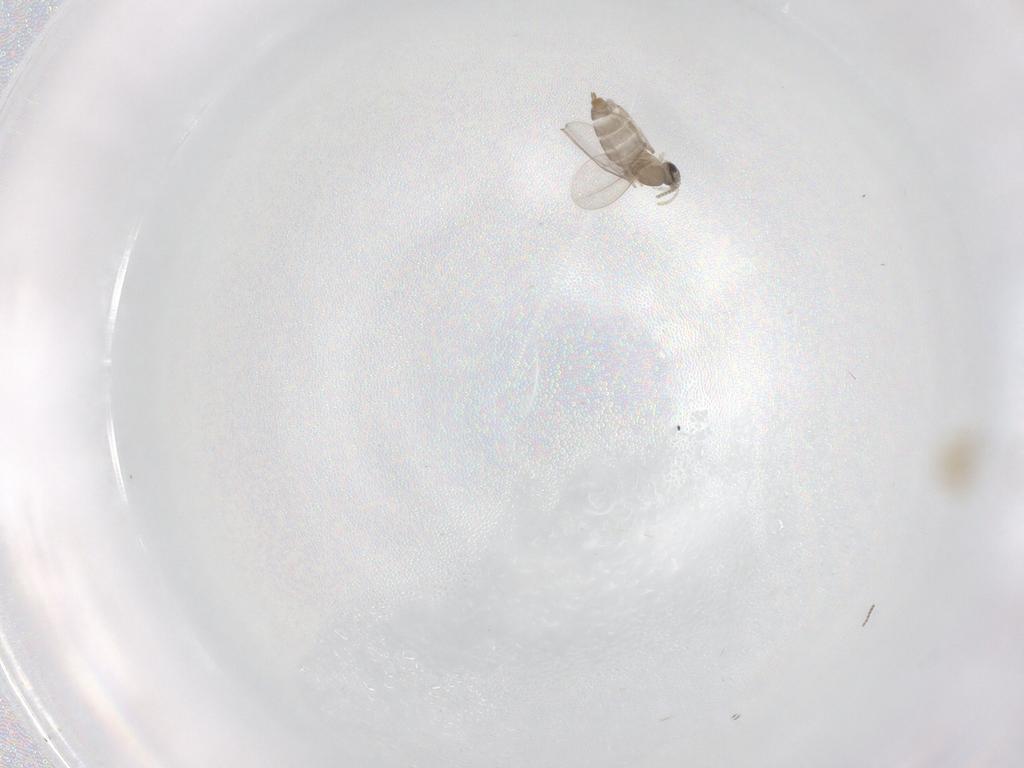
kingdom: Animalia
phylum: Arthropoda
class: Insecta
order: Diptera
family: Cecidomyiidae
